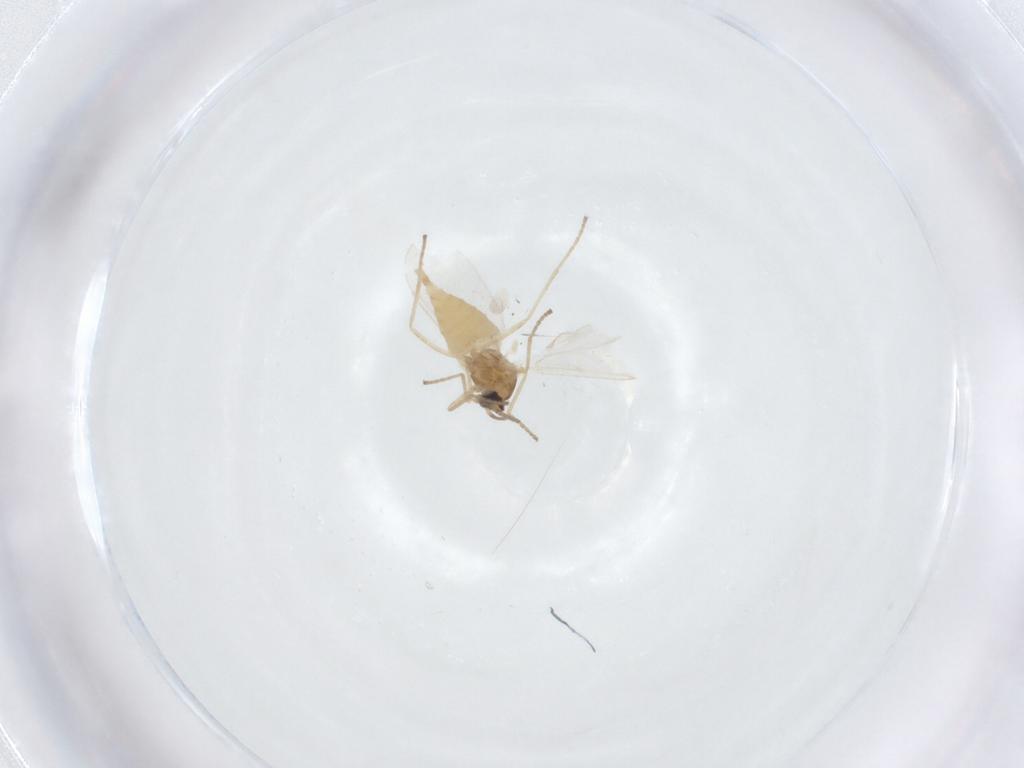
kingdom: Animalia
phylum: Arthropoda
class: Insecta
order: Diptera
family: Cecidomyiidae
